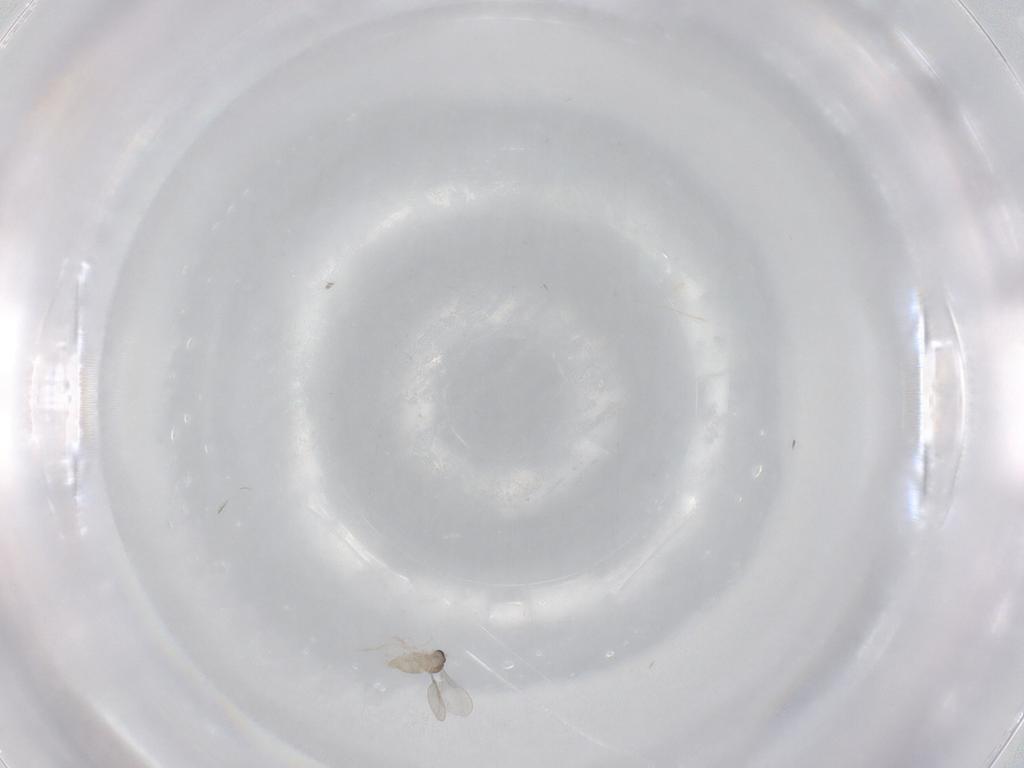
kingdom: Animalia
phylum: Arthropoda
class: Insecta
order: Diptera
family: Cecidomyiidae
